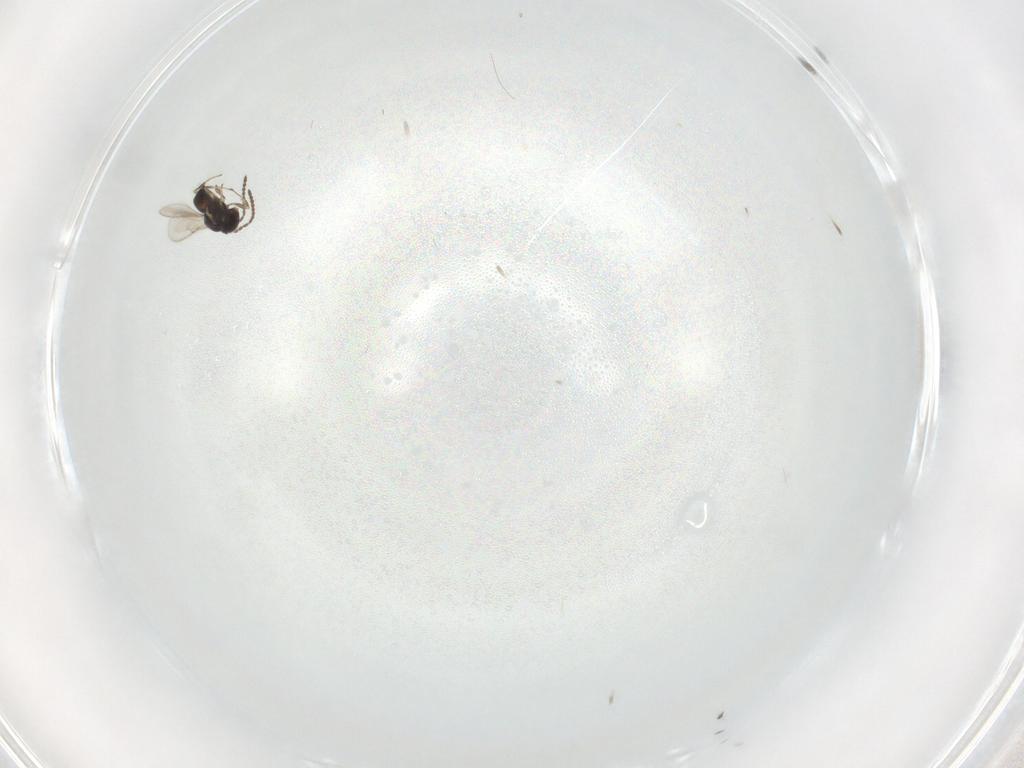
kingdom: Animalia
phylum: Arthropoda
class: Insecta
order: Hymenoptera
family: Scelionidae
